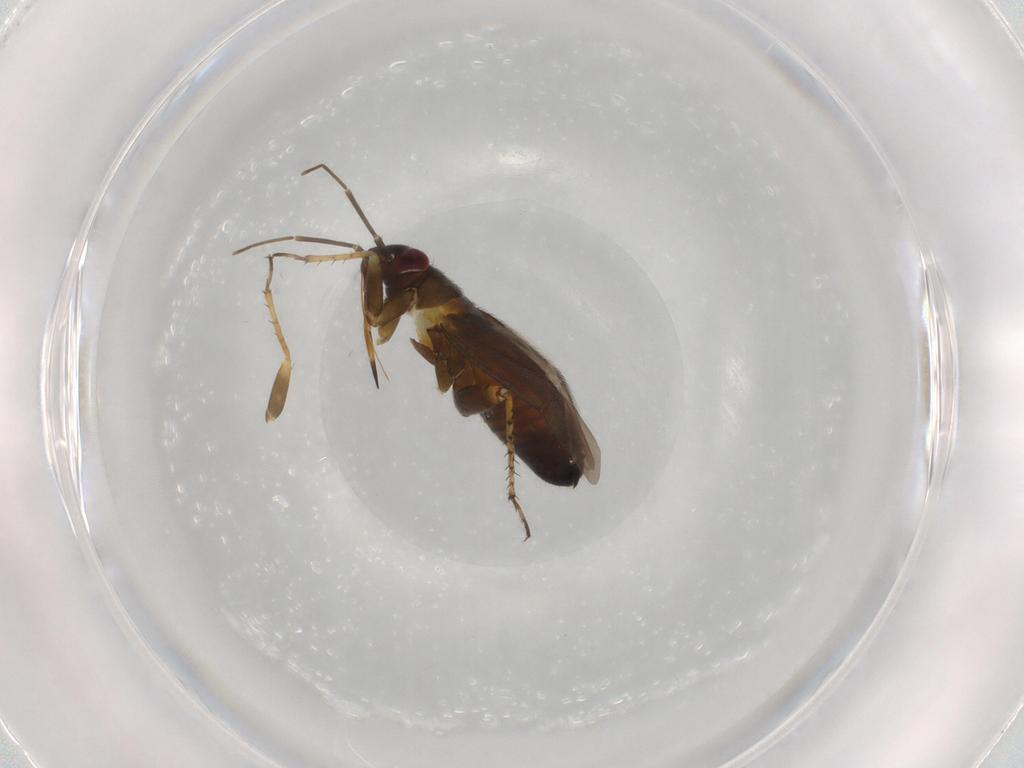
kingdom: Animalia
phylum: Arthropoda
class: Insecta
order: Hemiptera
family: Miridae
